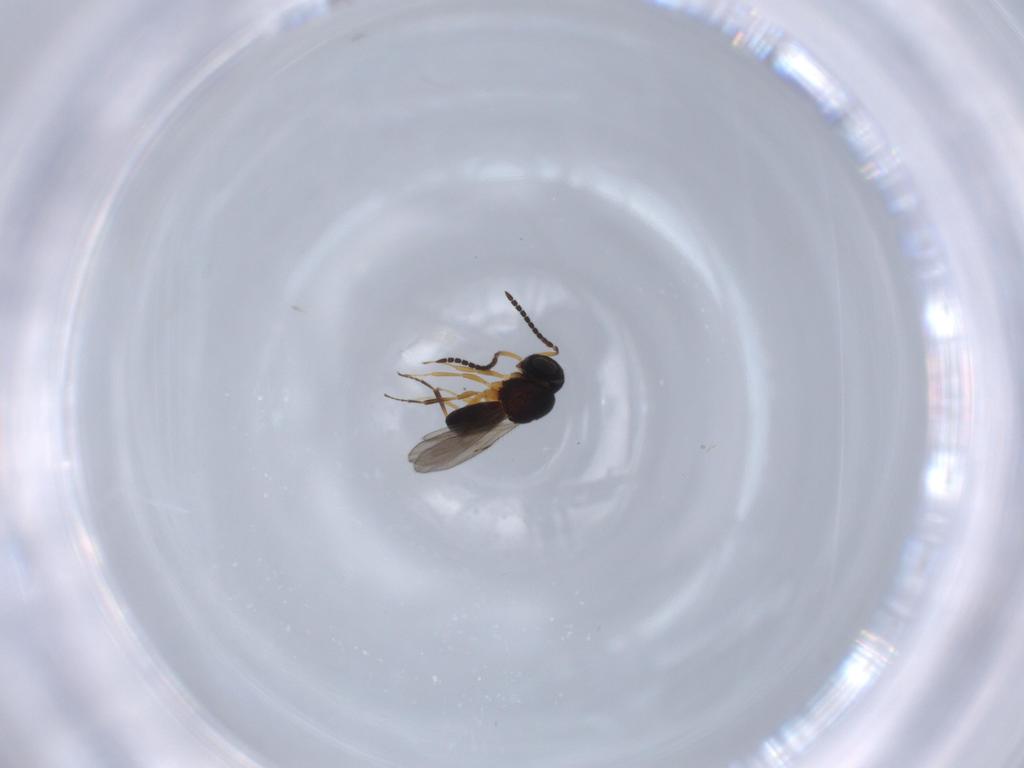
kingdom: Animalia
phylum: Arthropoda
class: Insecta
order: Hymenoptera
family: Scelionidae
